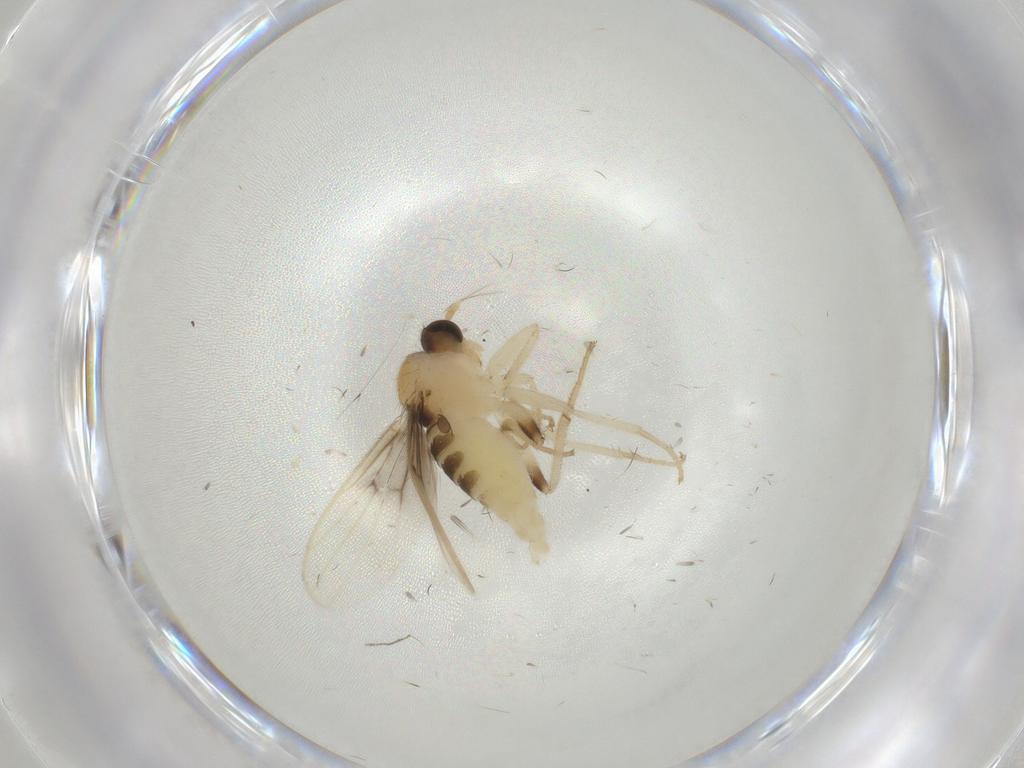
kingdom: Animalia
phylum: Arthropoda
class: Insecta
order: Diptera
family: Hybotidae
